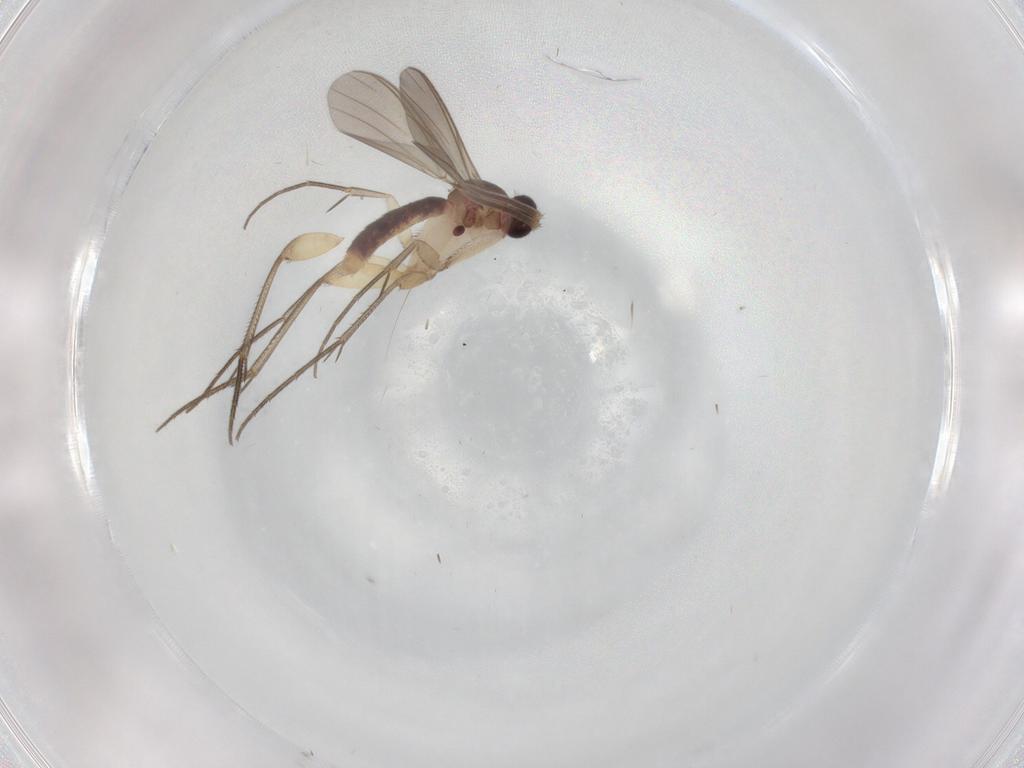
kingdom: Animalia
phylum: Arthropoda
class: Insecta
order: Diptera
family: Mycetophilidae
